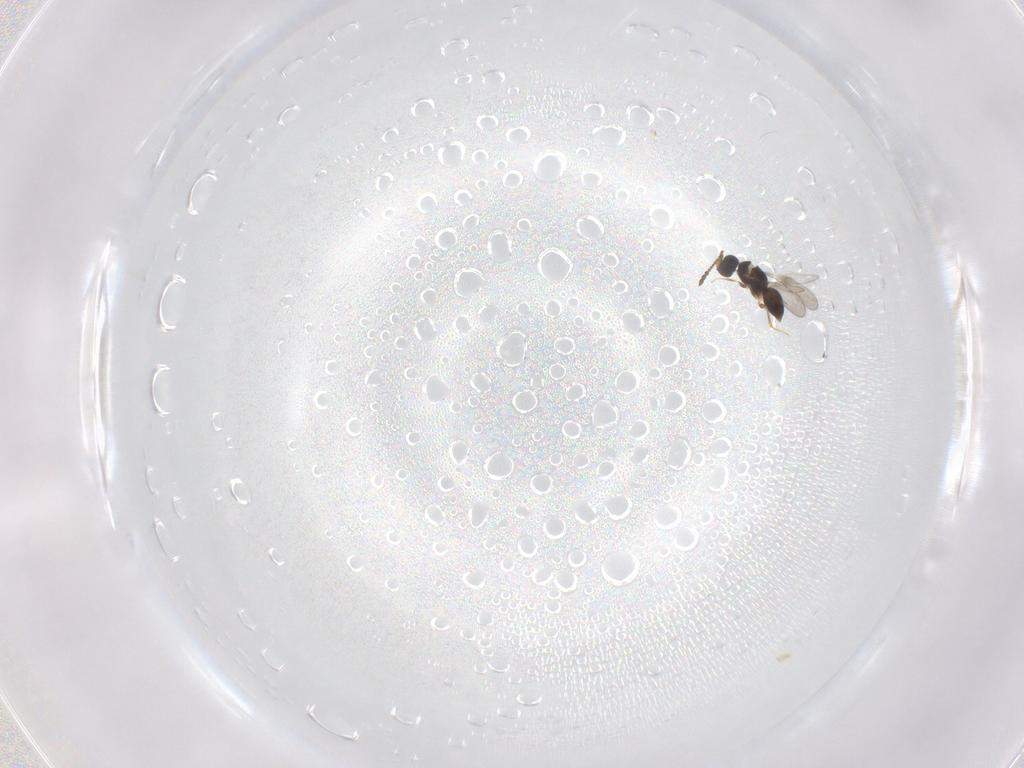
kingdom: Animalia
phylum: Arthropoda
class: Insecta
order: Hymenoptera
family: Ceraphronidae
